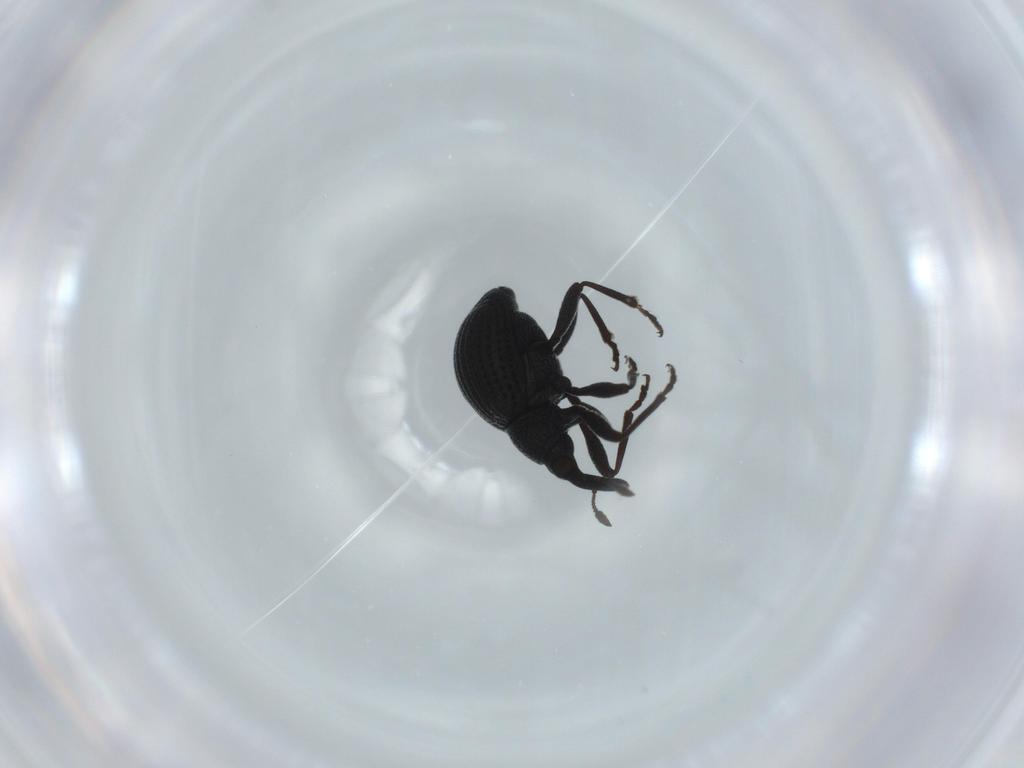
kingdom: Animalia
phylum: Arthropoda
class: Insecta
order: Coleoptera
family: Brentidae
